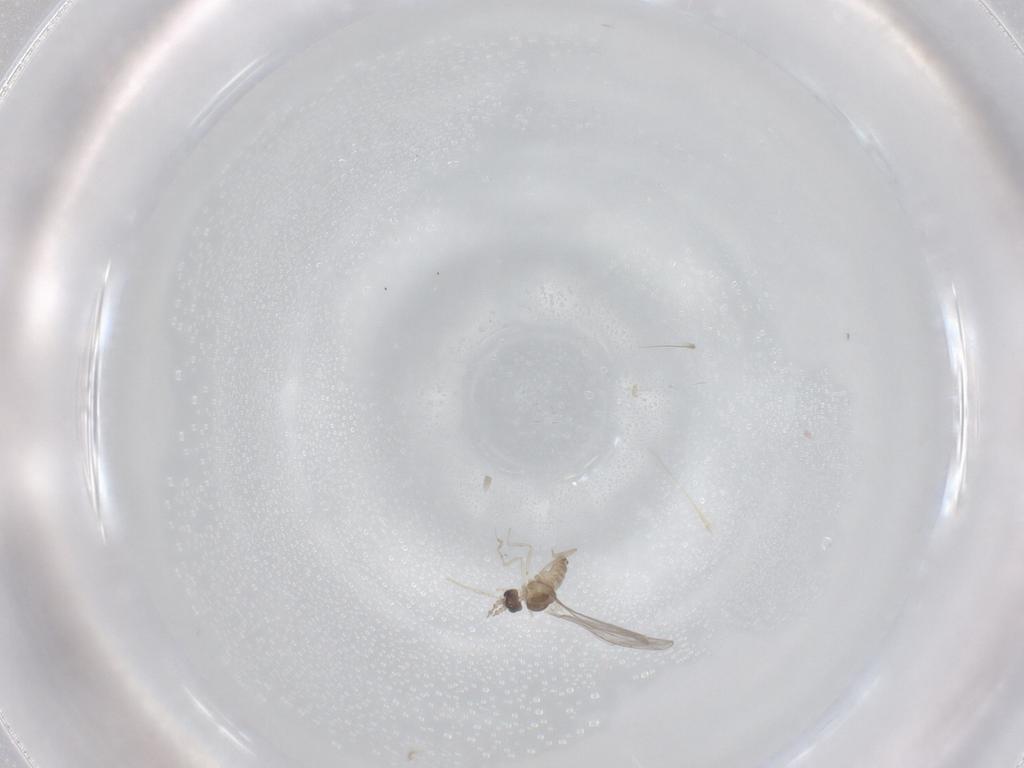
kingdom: Animalia
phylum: Arthropoda
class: Insecta
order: Diptera
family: Cecidomyiidae
